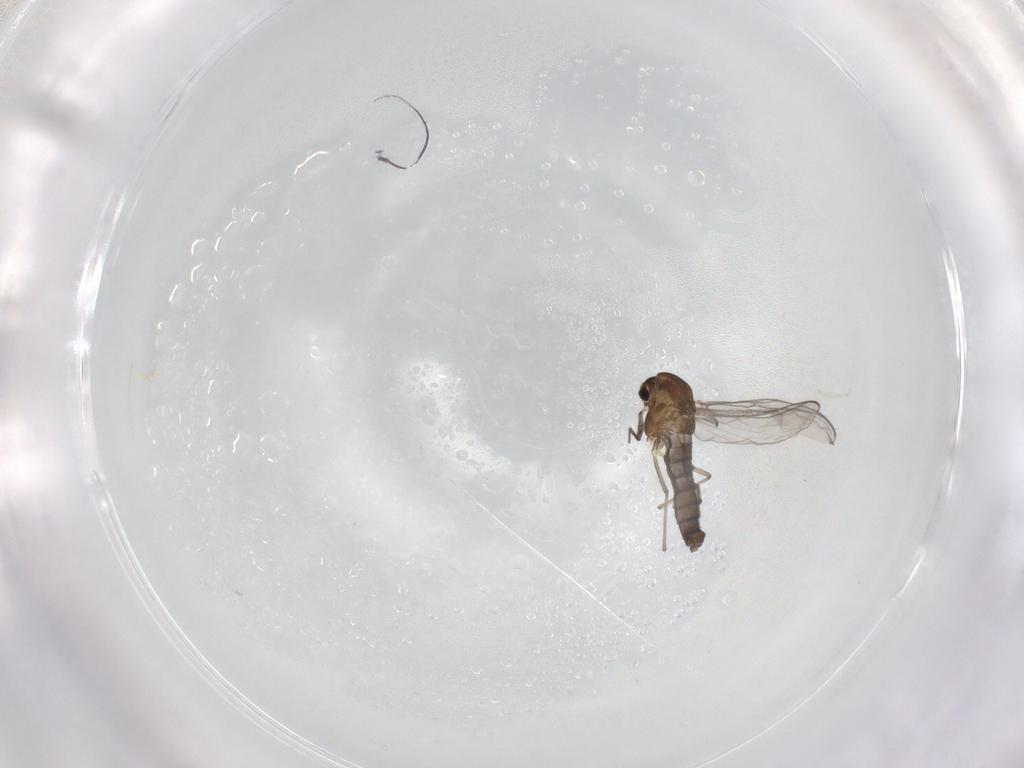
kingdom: Animalia
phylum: Arthropoda
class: Insecta
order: Diptera
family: Chironomidae
